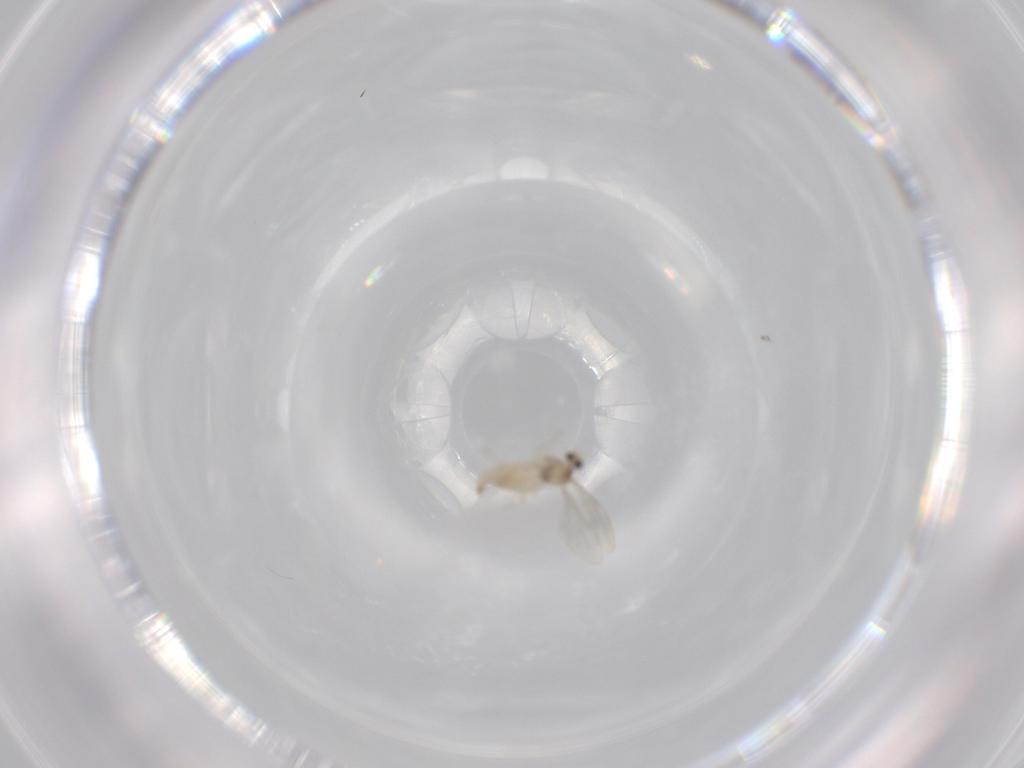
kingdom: Animalia
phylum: Arthropoda
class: Insecta
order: Diptera
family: Cecidomyiidae
